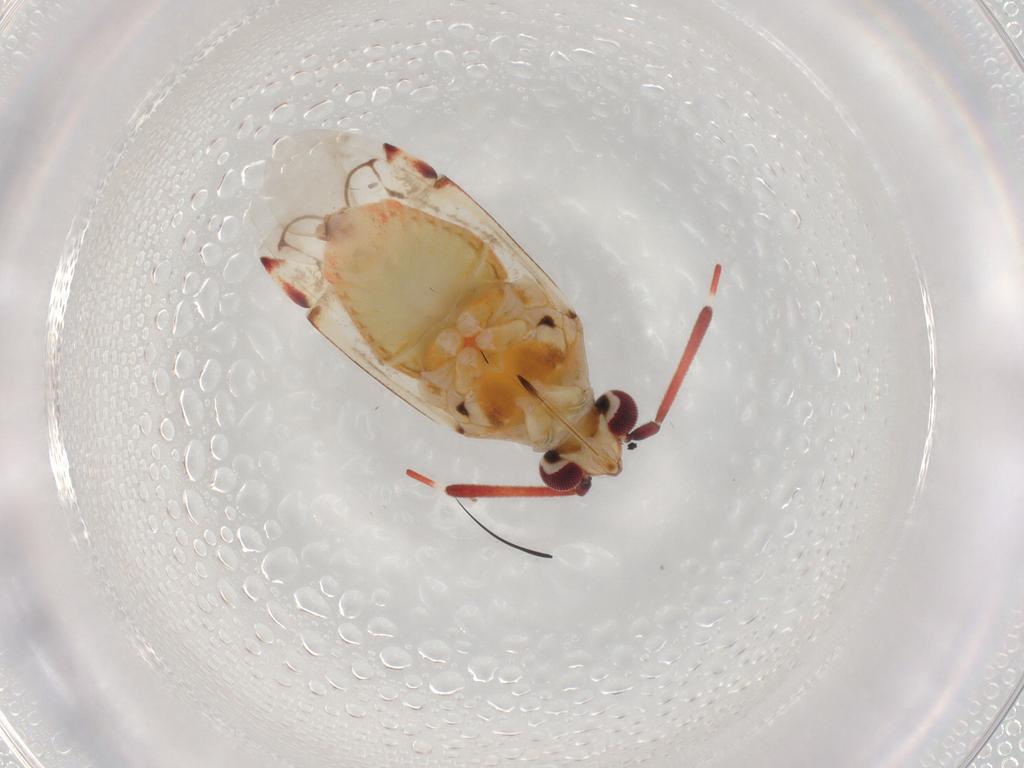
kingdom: Animalia
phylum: Arthropoda
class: Insecta
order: Hemiptera
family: Miridae
